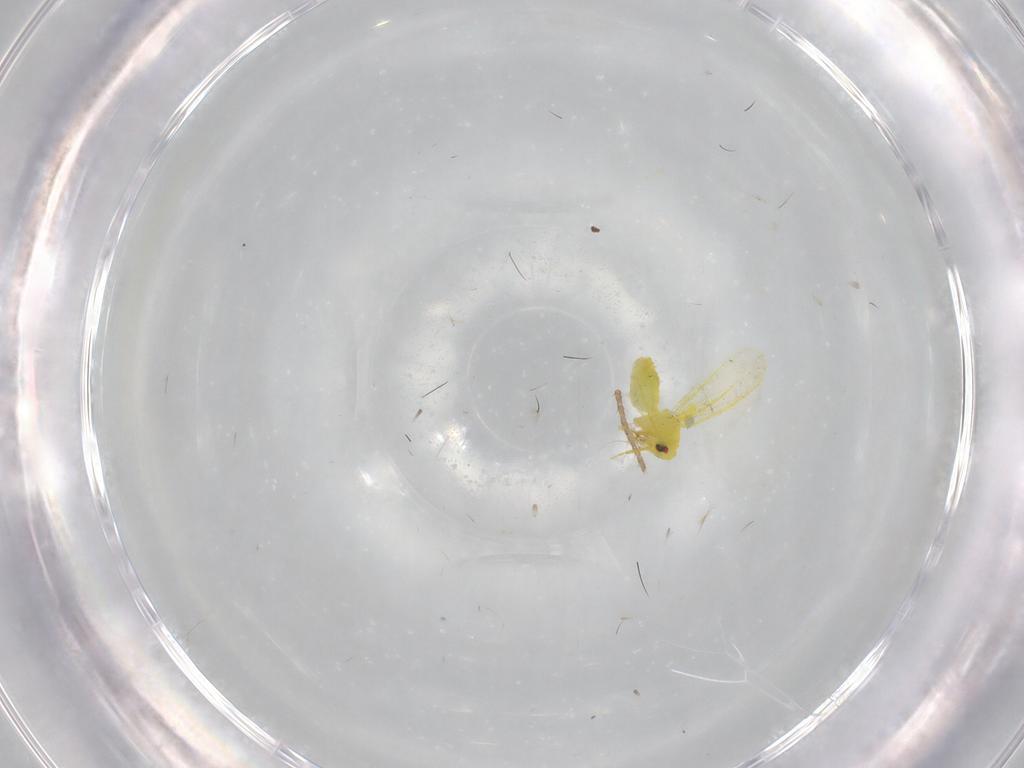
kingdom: Animalia
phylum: Arthropoda
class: Insecta
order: Hemiptera
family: Aleyrodidae
